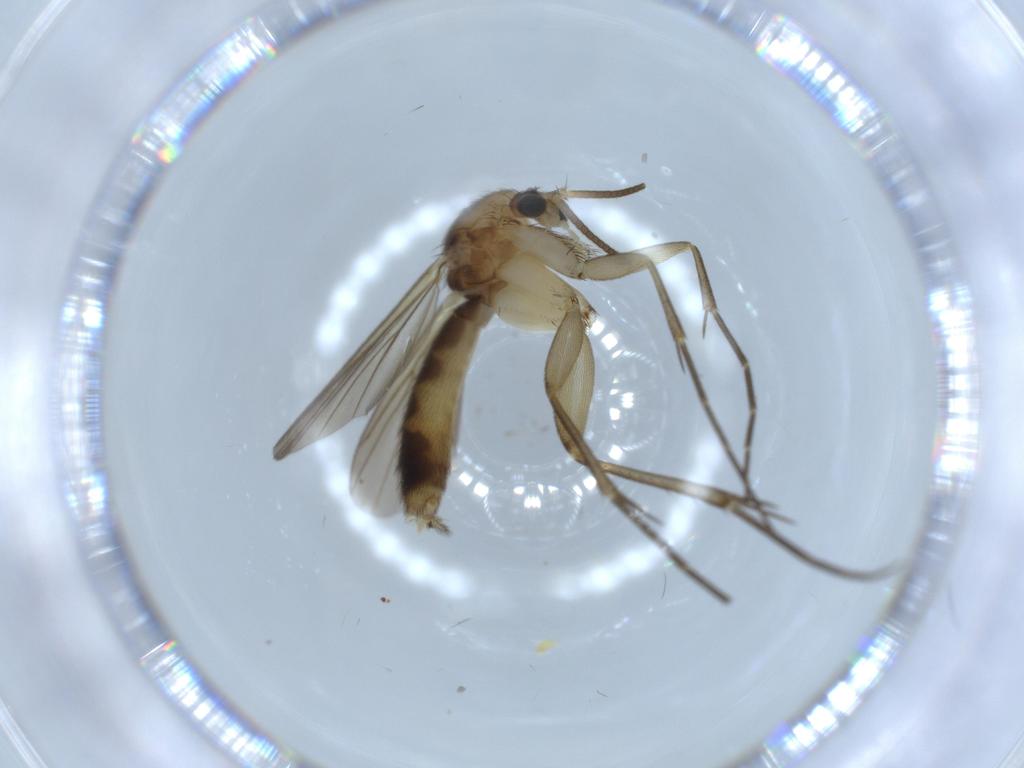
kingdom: Animalia
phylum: Arthropoda
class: Insecta
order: Diptera
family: Mycetophilidae
